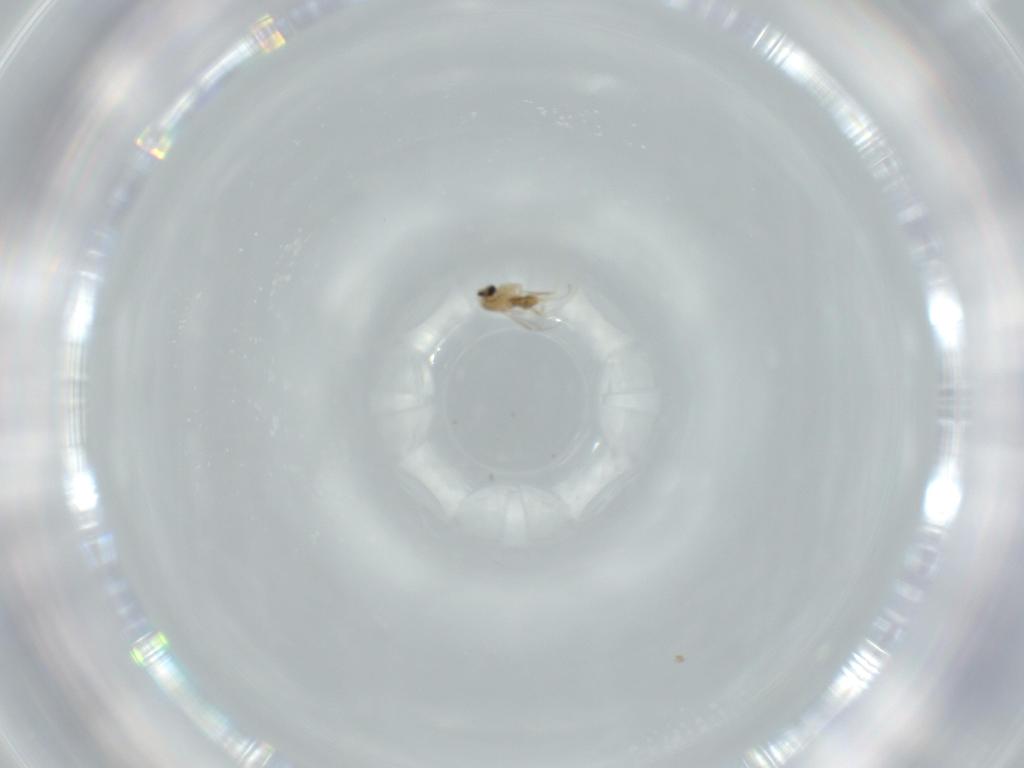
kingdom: Animalia
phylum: Arthropoda
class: Insecta
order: Diptera
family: Cecidomyiidae
